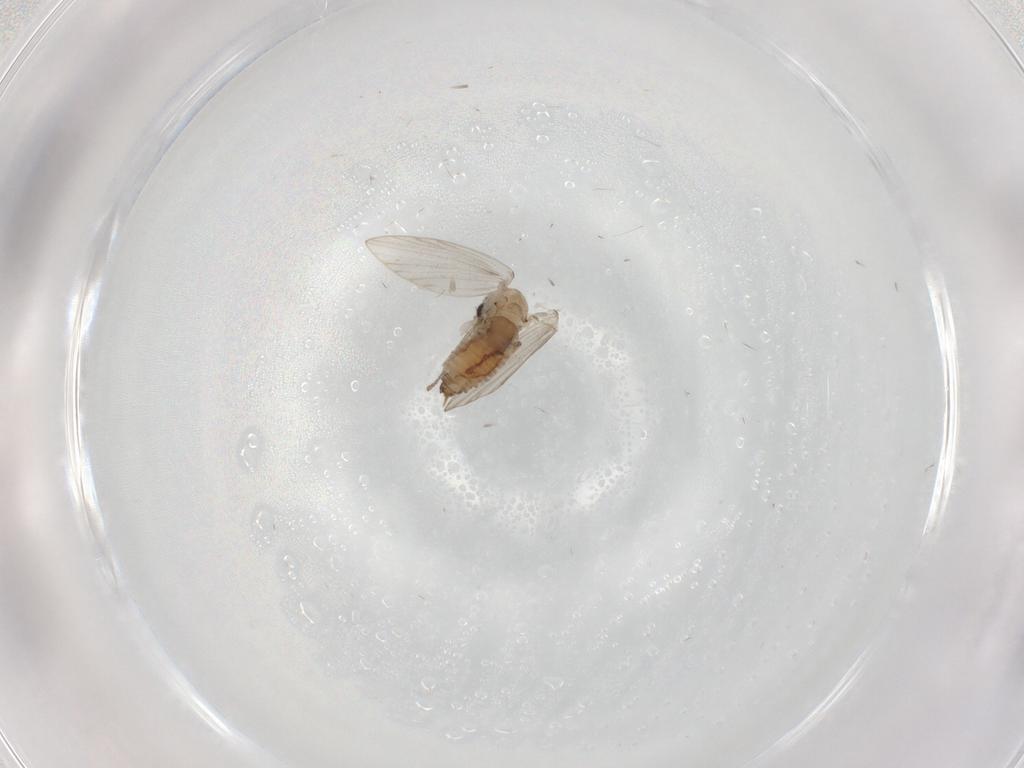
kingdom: Animalia
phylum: Arthropoda
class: Insecta
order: Diptera
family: Psychodidae
